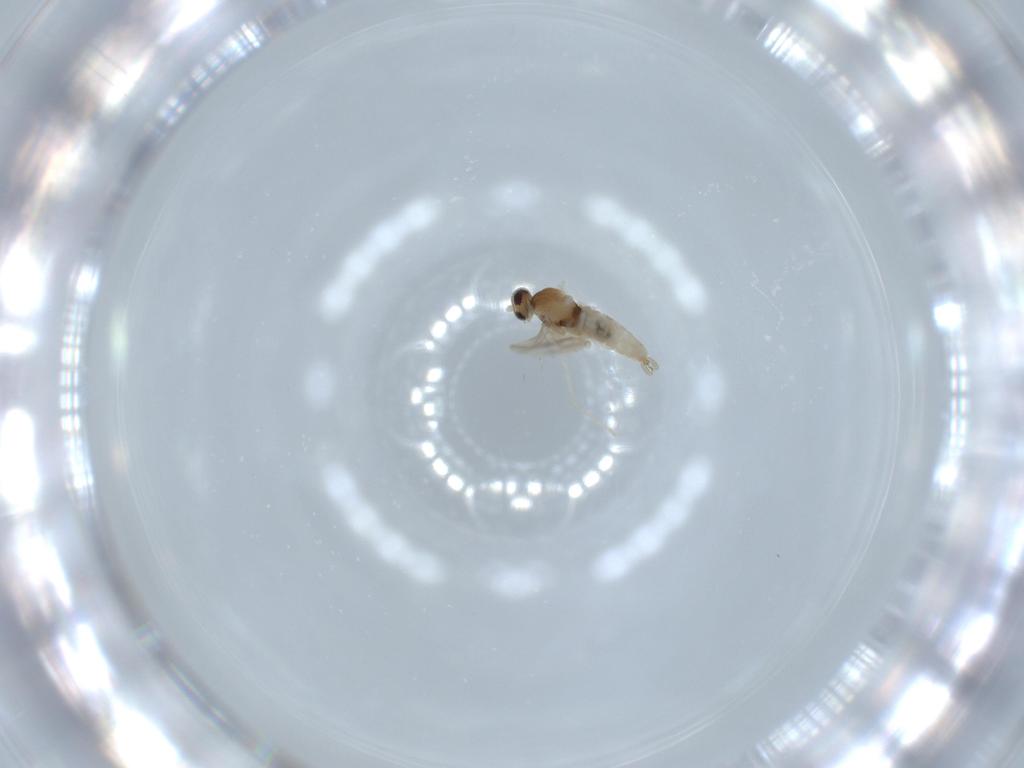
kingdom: Animalia
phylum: Arthropoda
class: Insecta
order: Diptera
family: Cecidomyiidae
